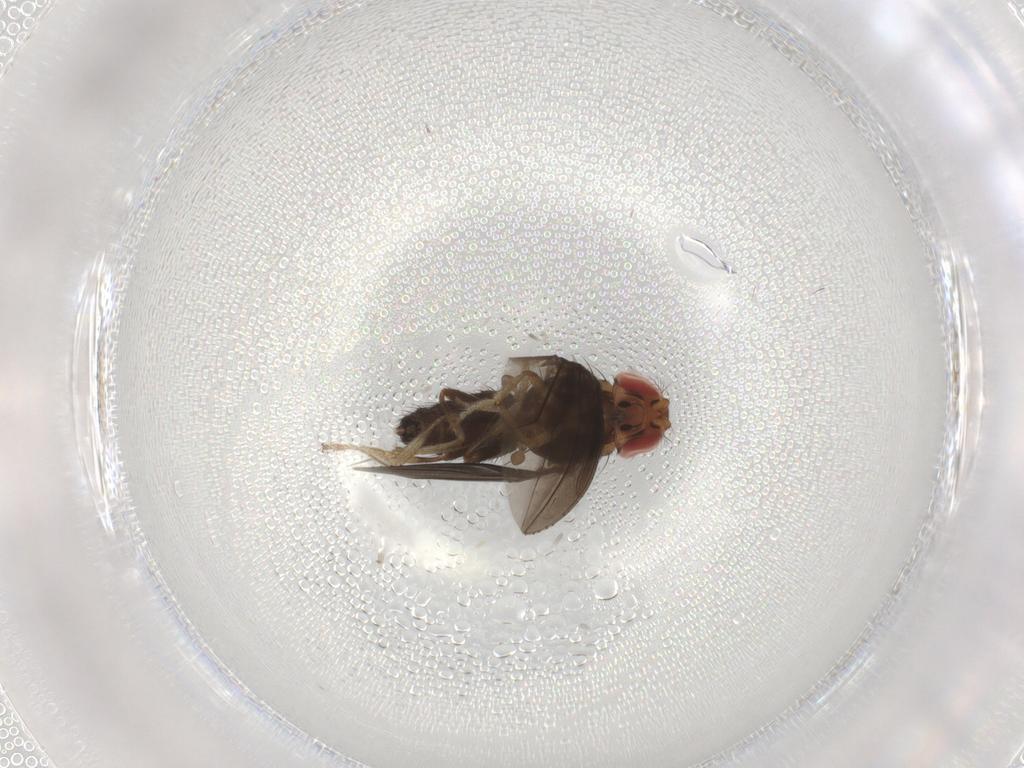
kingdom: Animalia
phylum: Arthropoda
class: Insecta
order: Diptera
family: Drosophilidae
